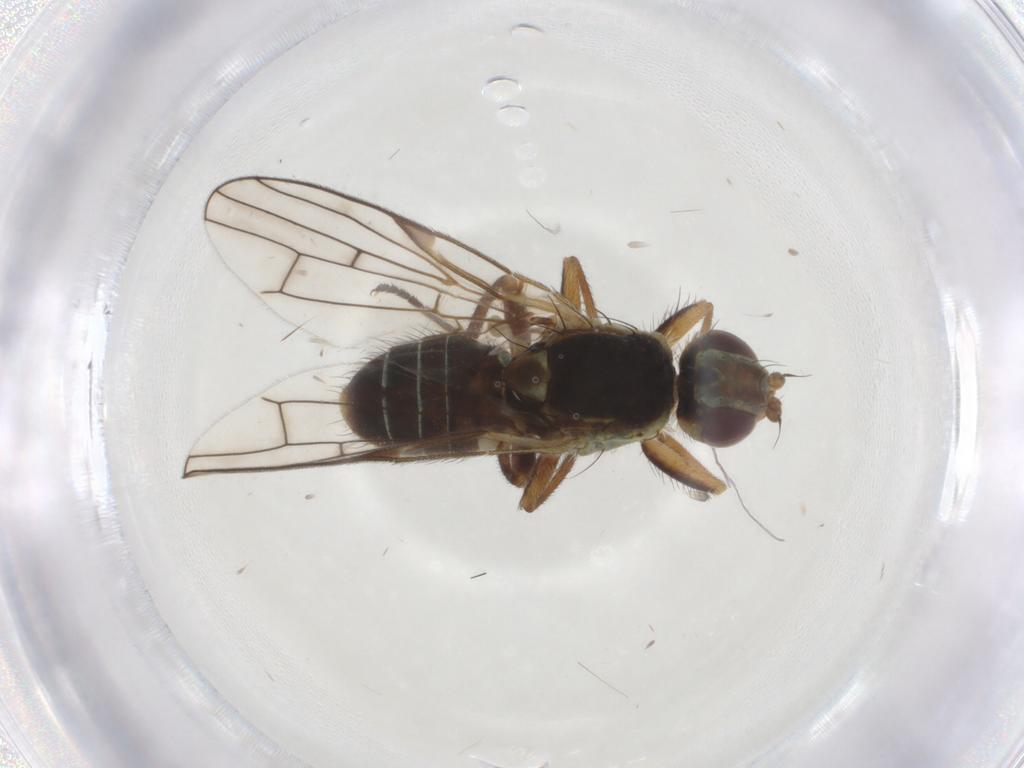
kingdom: Animalia
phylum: Arthropoda
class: Insecta
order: Diptera
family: Tephritidae
